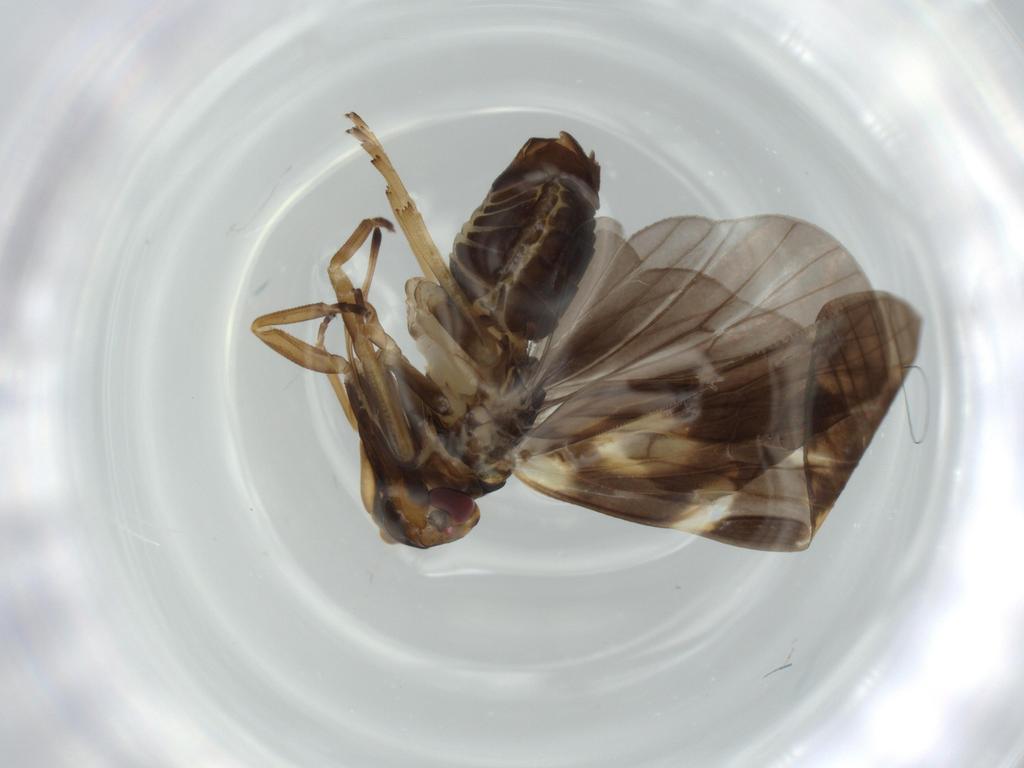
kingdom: Animalia
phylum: Arthropoda
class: Insecta
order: Hemiptera
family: Cixiidae
